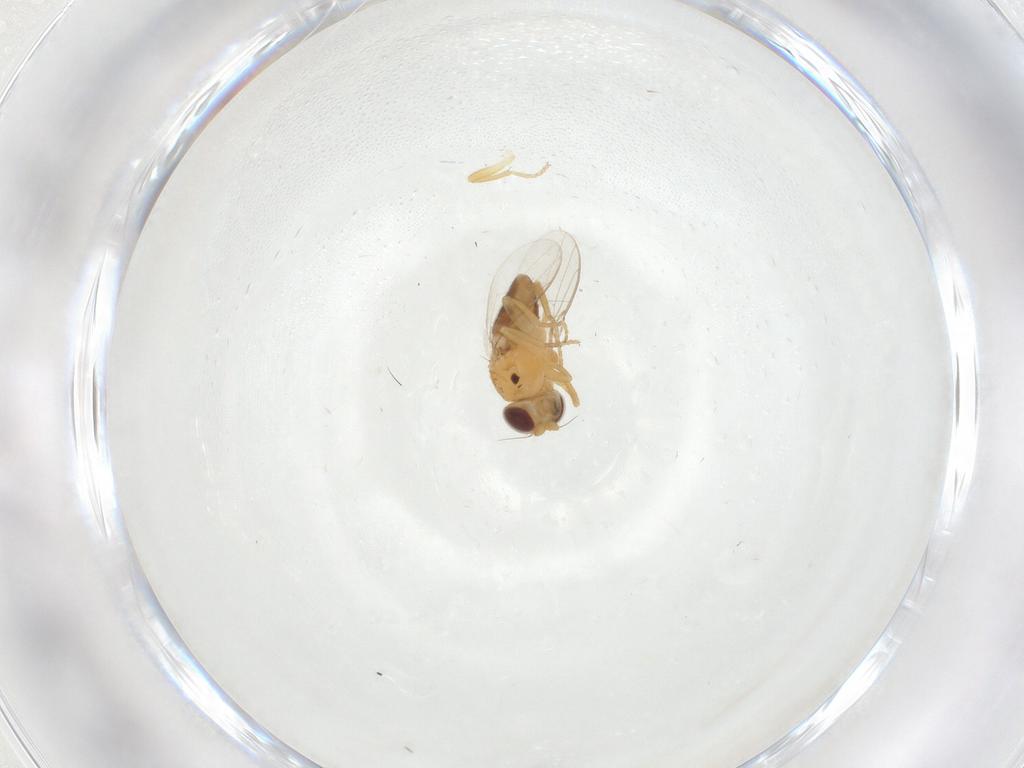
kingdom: Animalia
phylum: Arthropoda
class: Insecta
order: Diptera
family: Chloropidae
